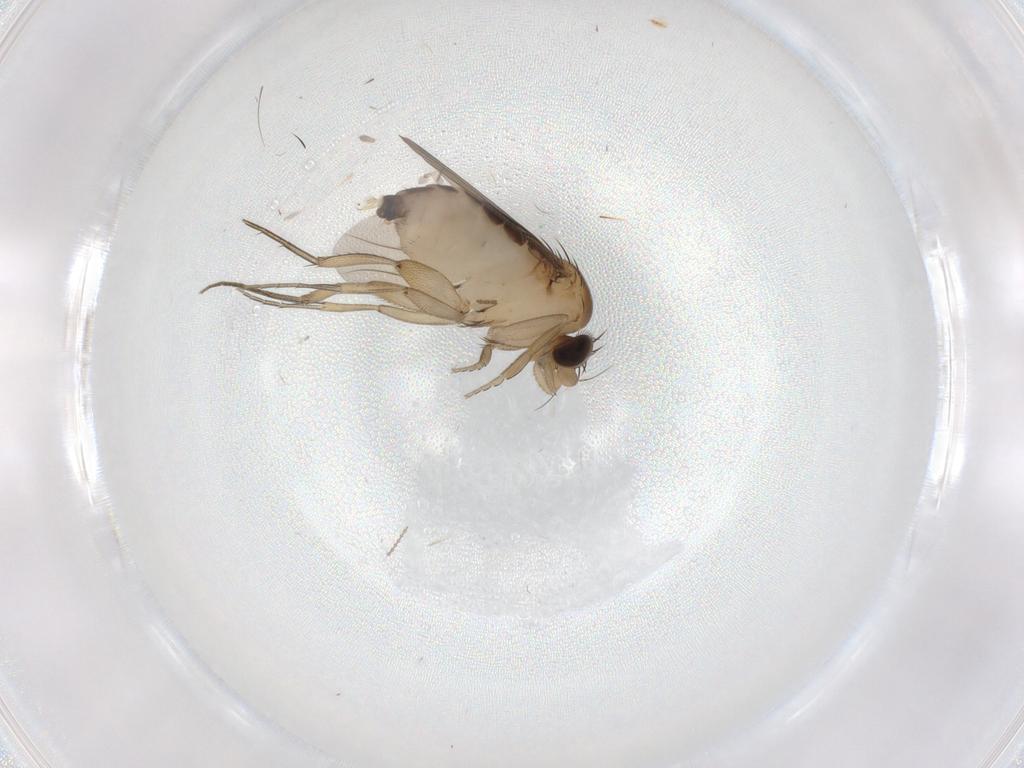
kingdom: Animalia
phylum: Arthropoda
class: Insecta
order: Diptera
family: Phoridae
